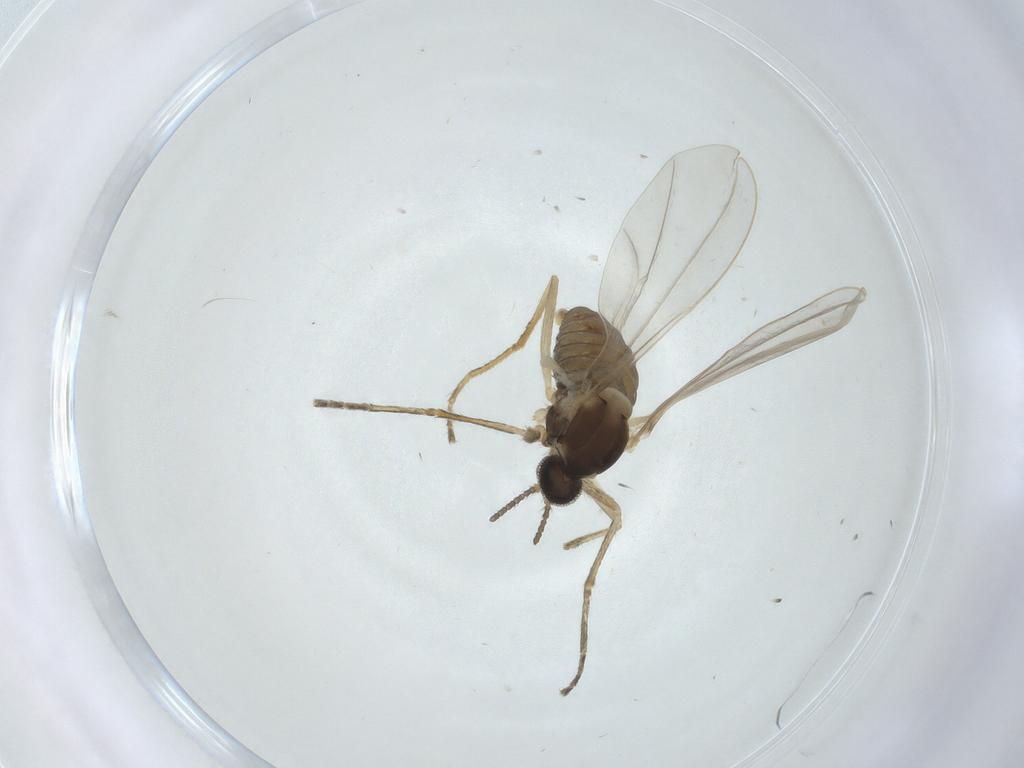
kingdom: Animalia
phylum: Arthropoda
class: Insecta
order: Diptera
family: Cecidomyiidae
